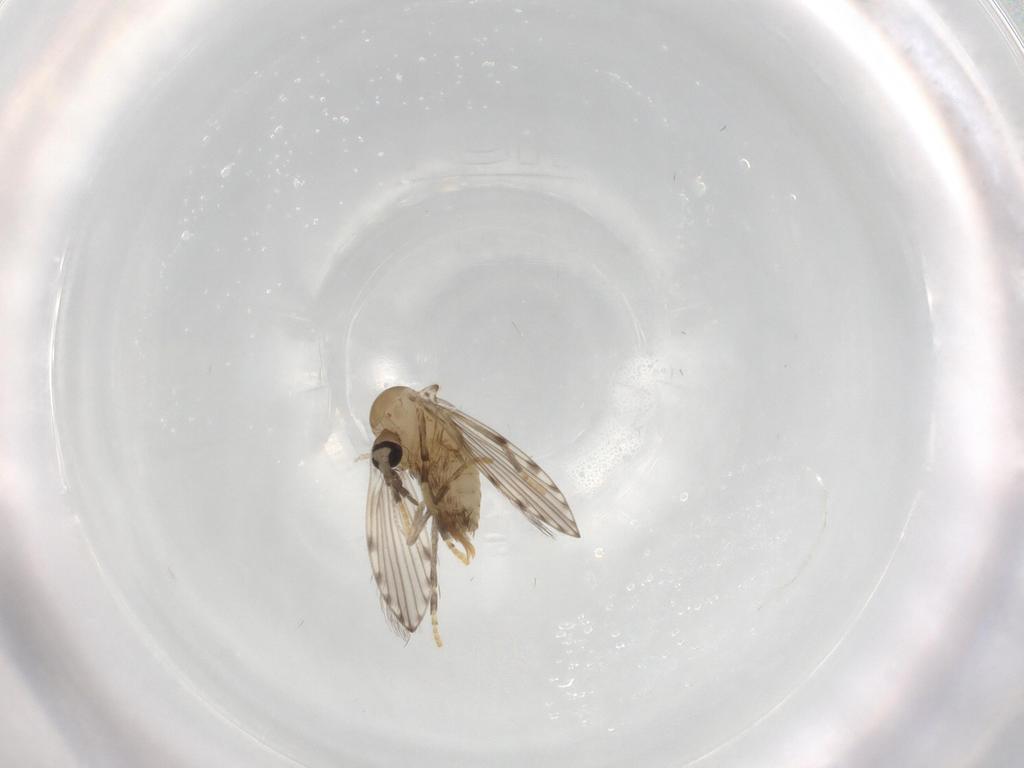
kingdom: Animalia
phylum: Arthropoda
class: Insecta
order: Diptera
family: Psychodidae
